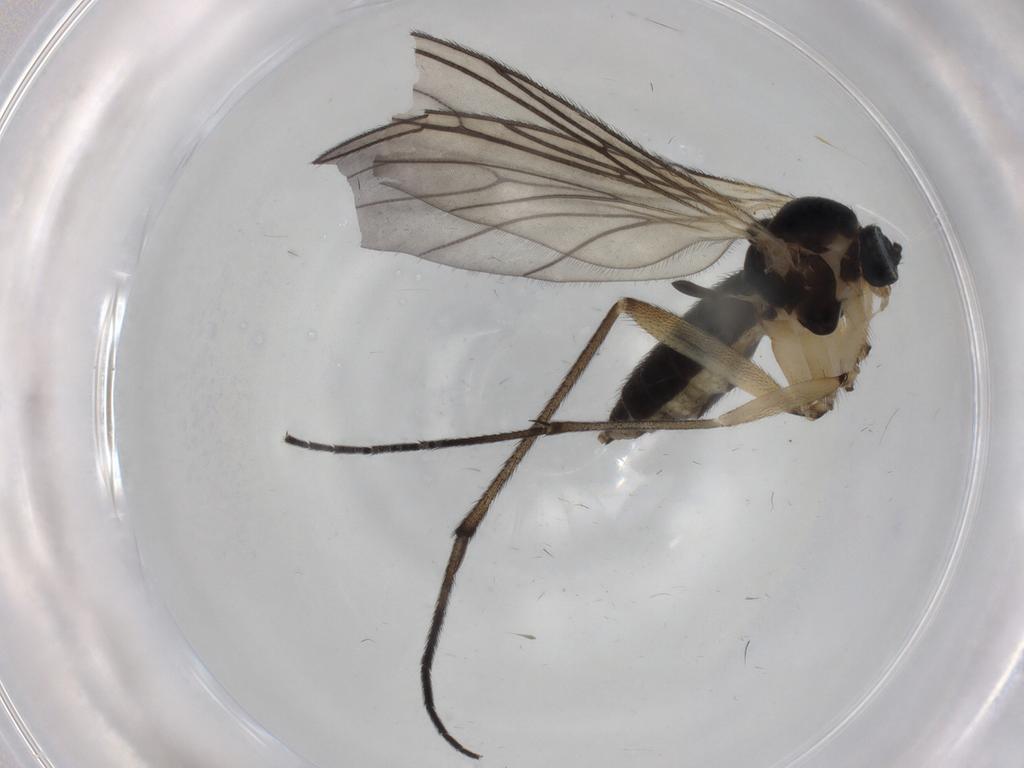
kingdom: Animalia
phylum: Arthropoda
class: Insecta
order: Diptera
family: Sciaridae
